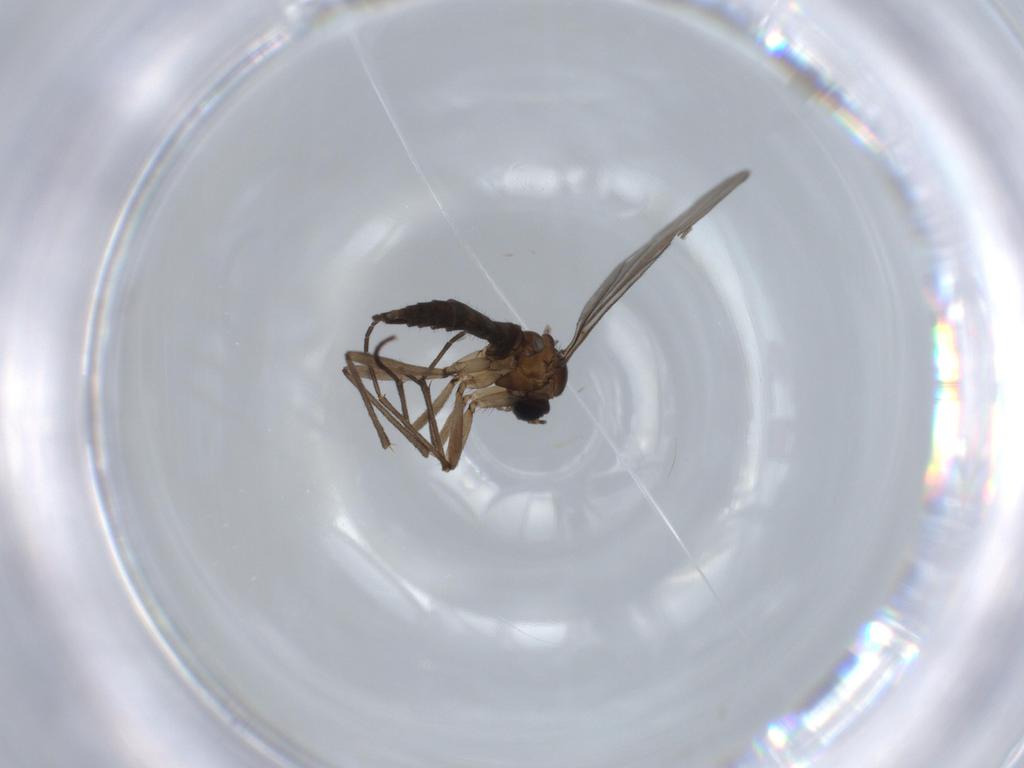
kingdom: Animalia
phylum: Arthropoda
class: Insecta
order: Diptera
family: Sciaridae
